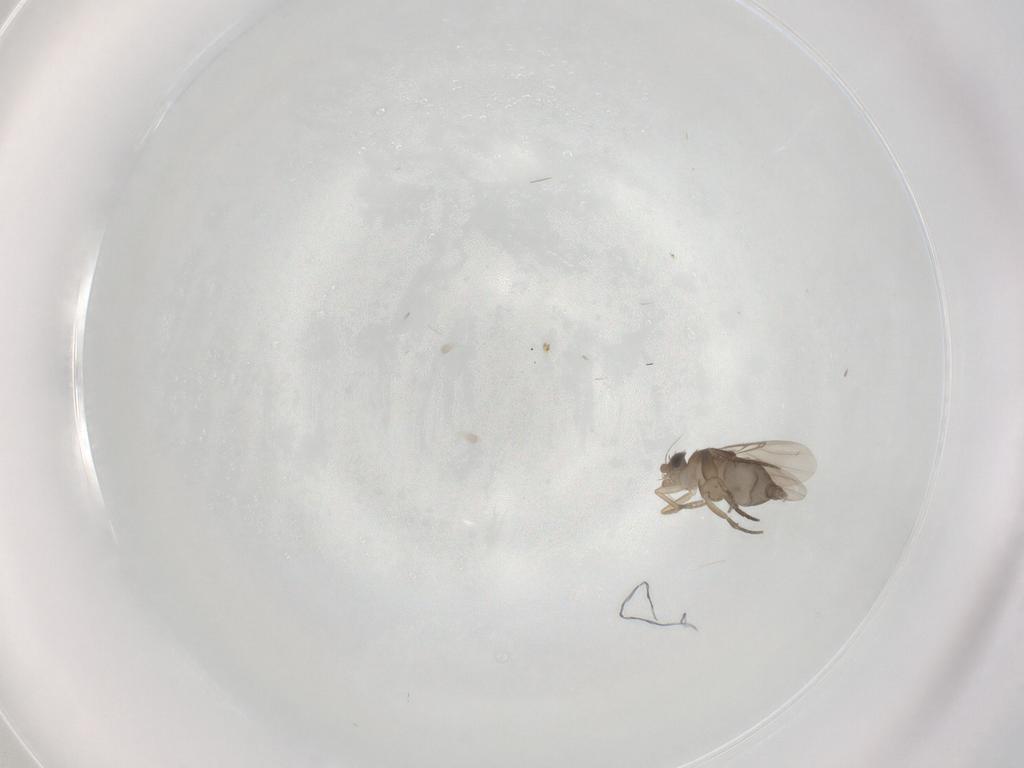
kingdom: Animalia
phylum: Arthropoda
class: Insecta
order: Diptera
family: Phoridae
